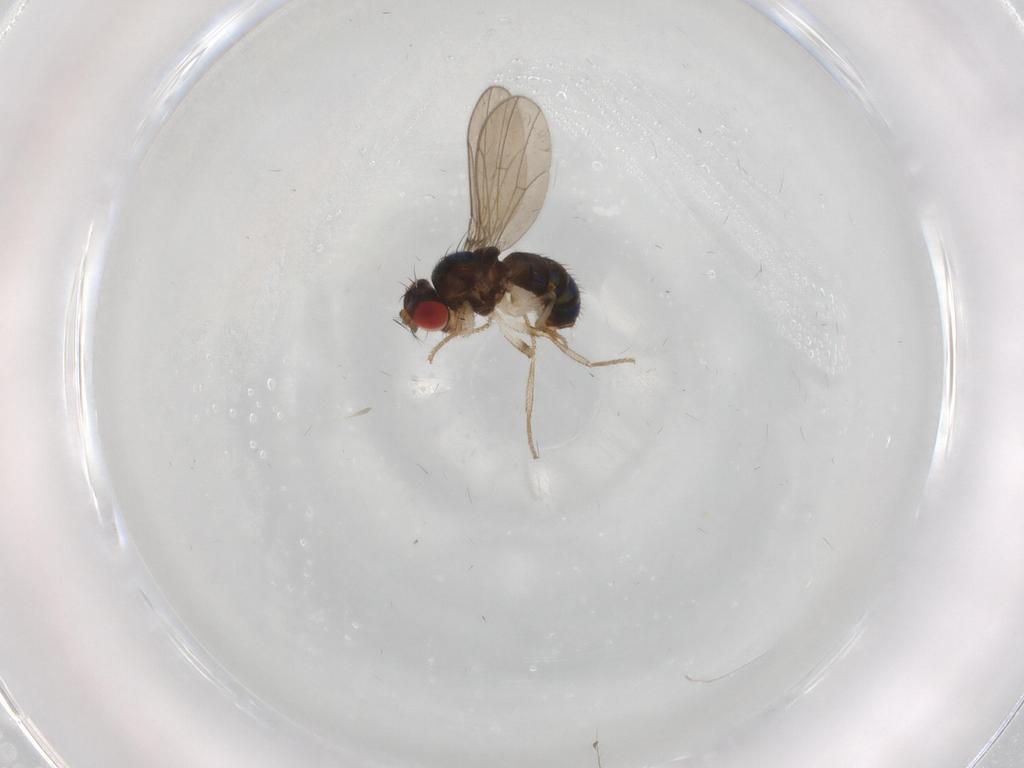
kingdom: Animalia
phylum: Arthropoda
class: Insecta
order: Diptera
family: Drosophilidae
